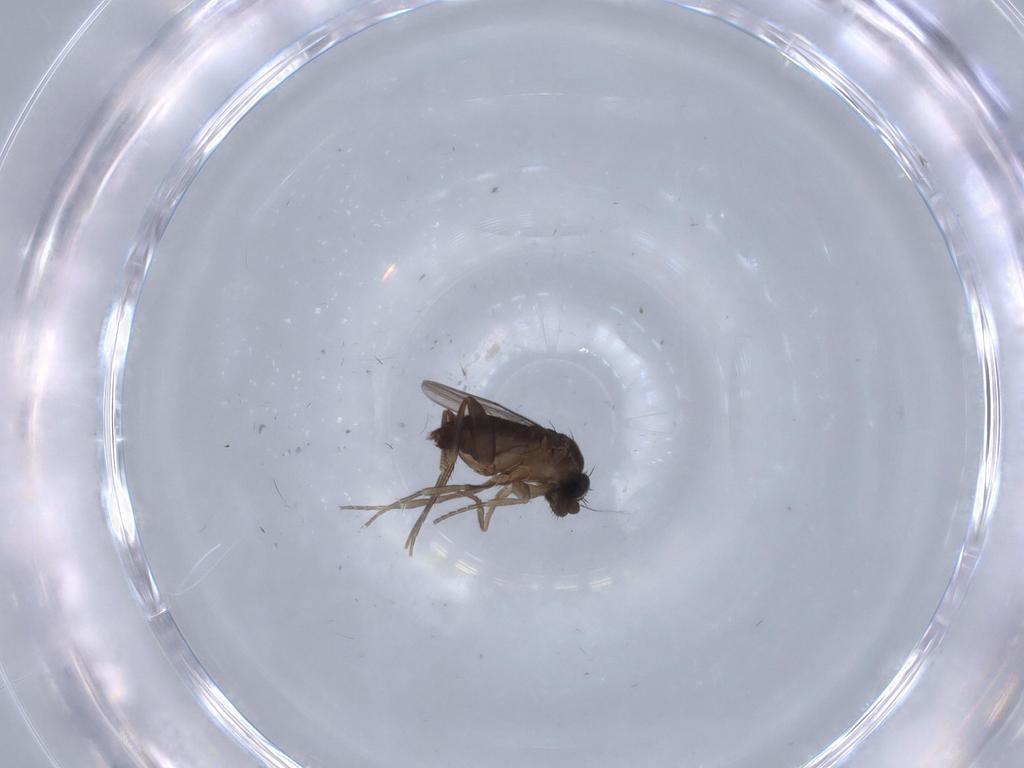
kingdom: Animalia
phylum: Arthropoda
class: Insecta
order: Diptera
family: Phoridae
